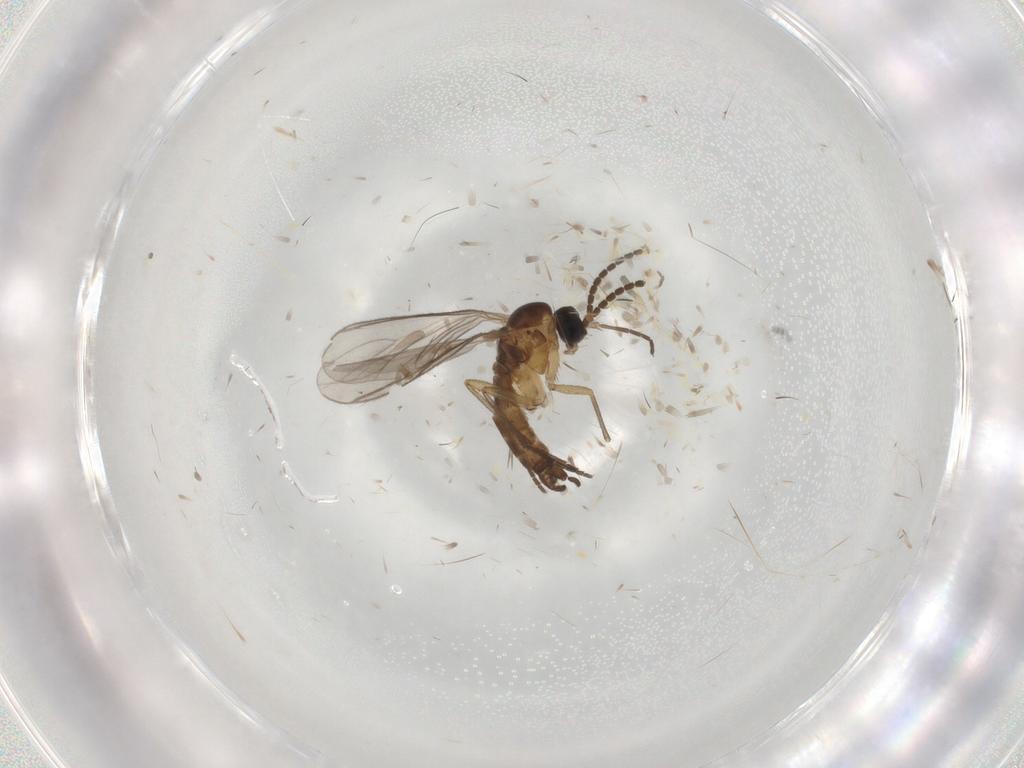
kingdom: Animalia
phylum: Arthropoda
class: Insecta
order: Diptera
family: Sciaridae
